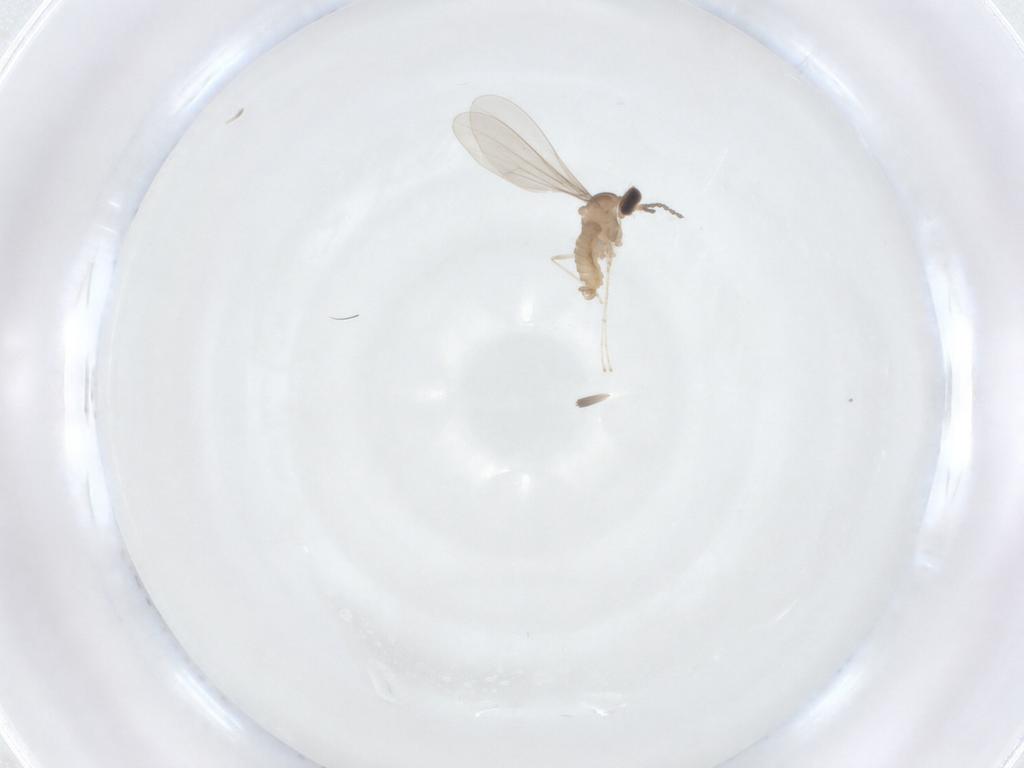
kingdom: Animalia
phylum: Arthropoda
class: Insecta
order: Diptera
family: Cecidomyiidae
